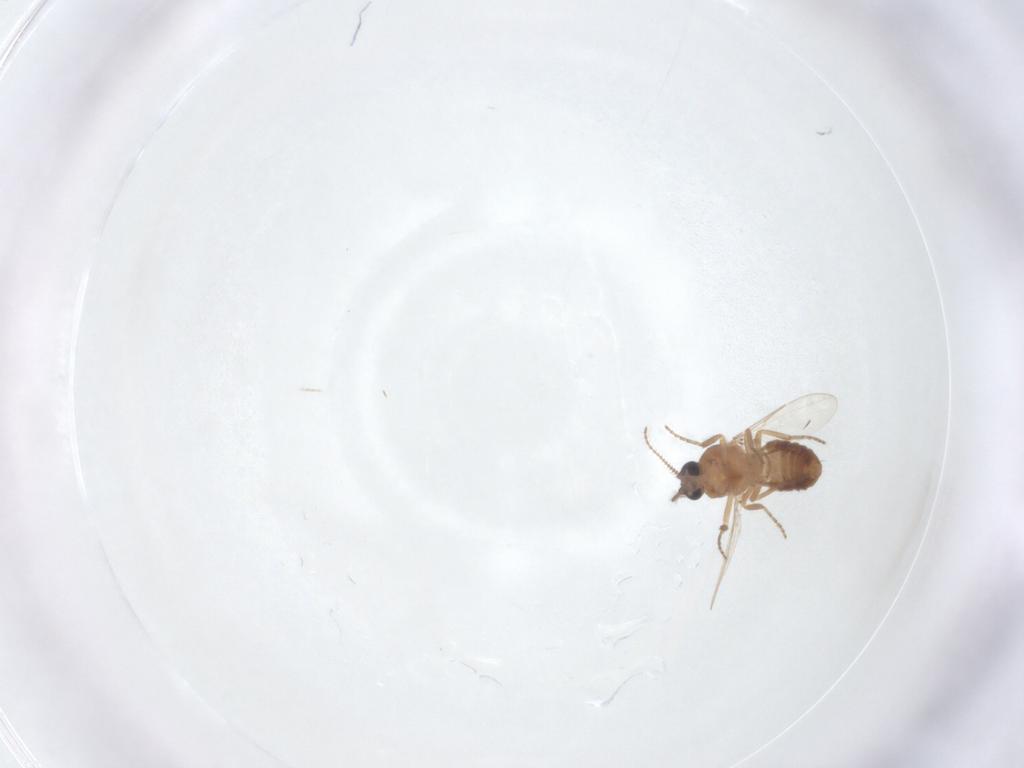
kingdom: Animalia
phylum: Arthropoda
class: Insecta
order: Diptera
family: Ceratopogonidae
